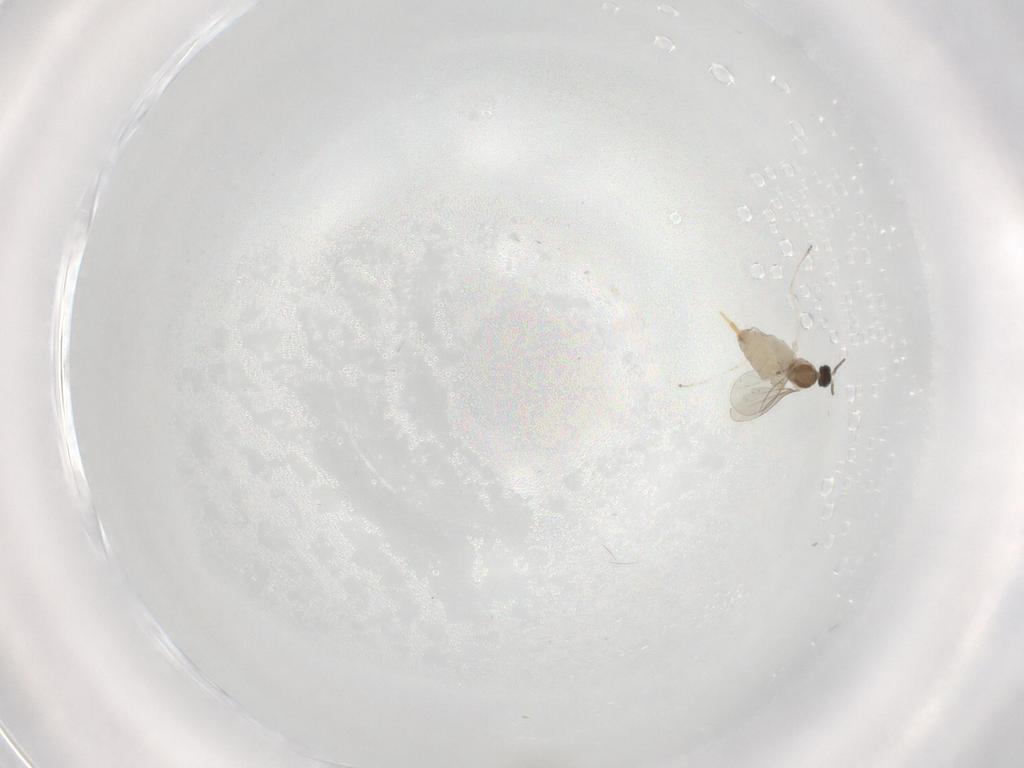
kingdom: Animalia
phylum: Arthropoda
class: Insecta
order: Diptera
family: Cecidomyiidae
